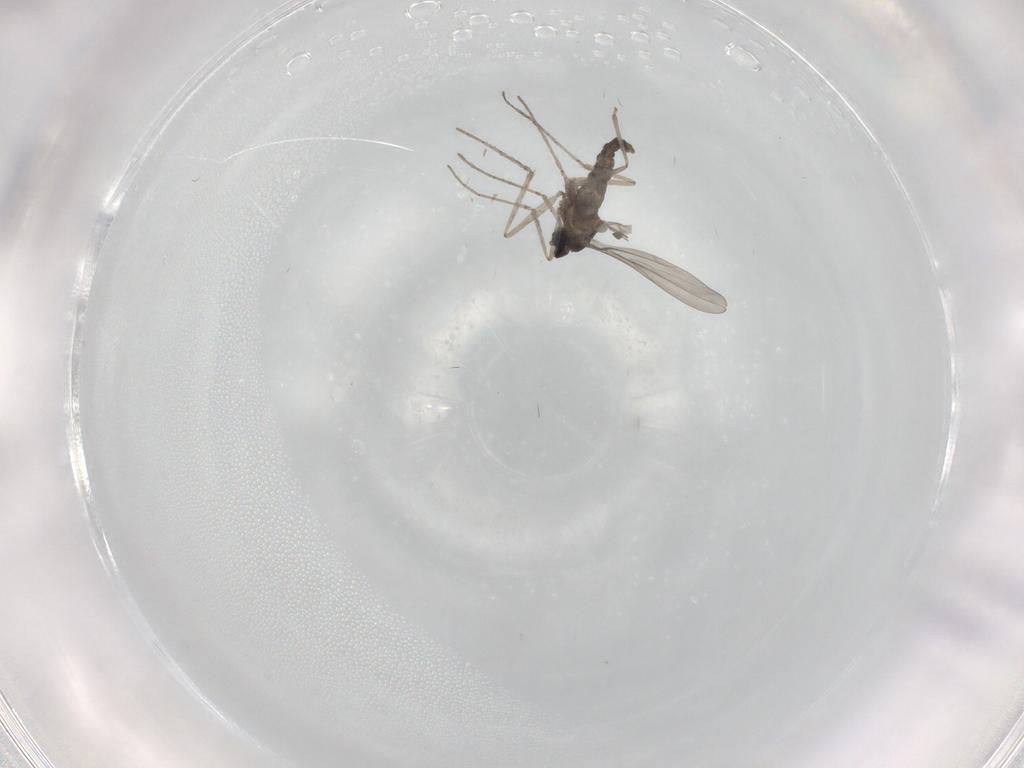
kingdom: Animalia
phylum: Arthropoda
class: Insecta
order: Diptera
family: Cecidomyiidae
